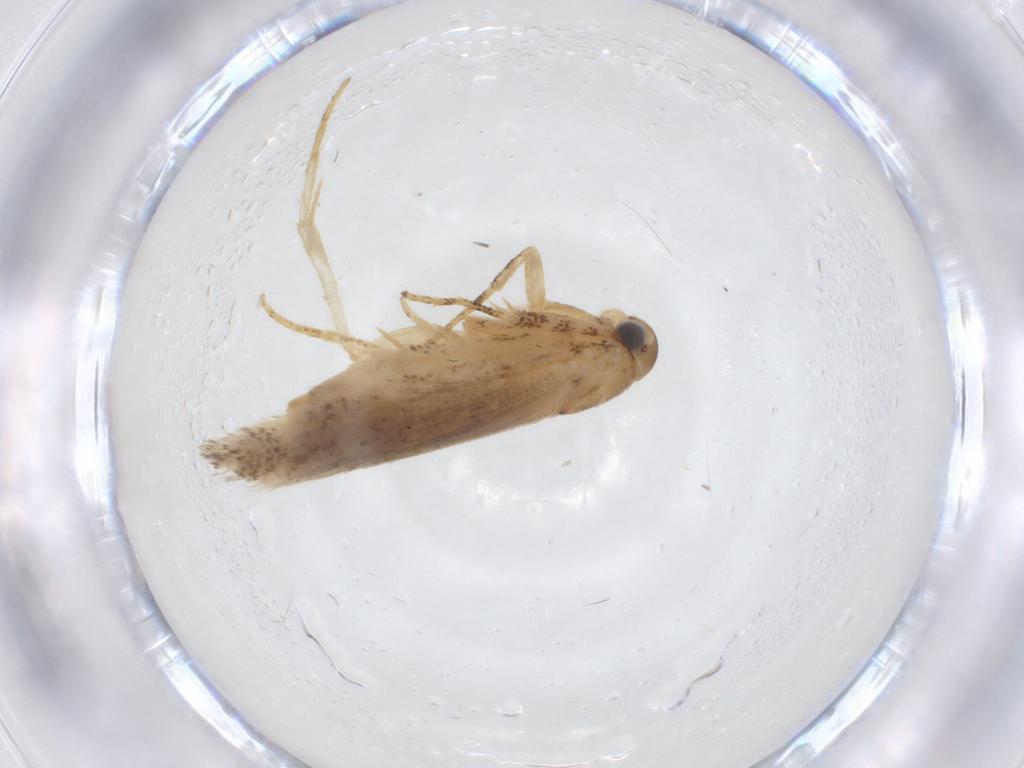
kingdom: Animalia
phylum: Arthropoda
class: Insecta
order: Lepidoptera
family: Gelechiidae
